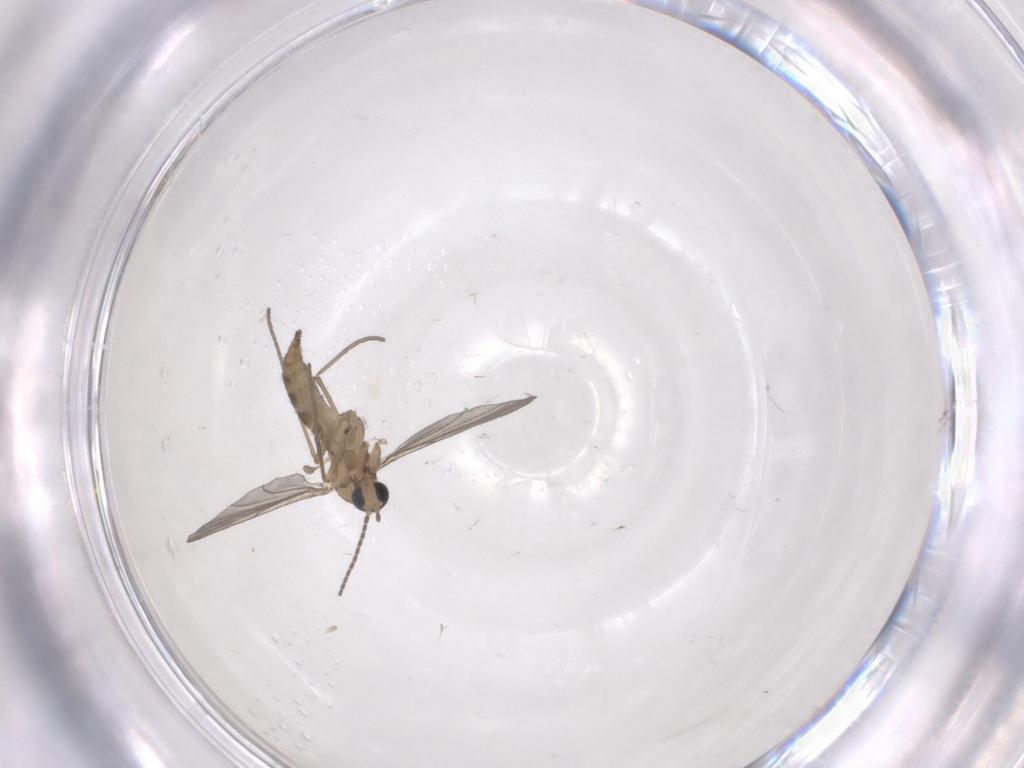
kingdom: Animalia
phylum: Arthropoda
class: Insecta
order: Diptera
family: Sciaridae
